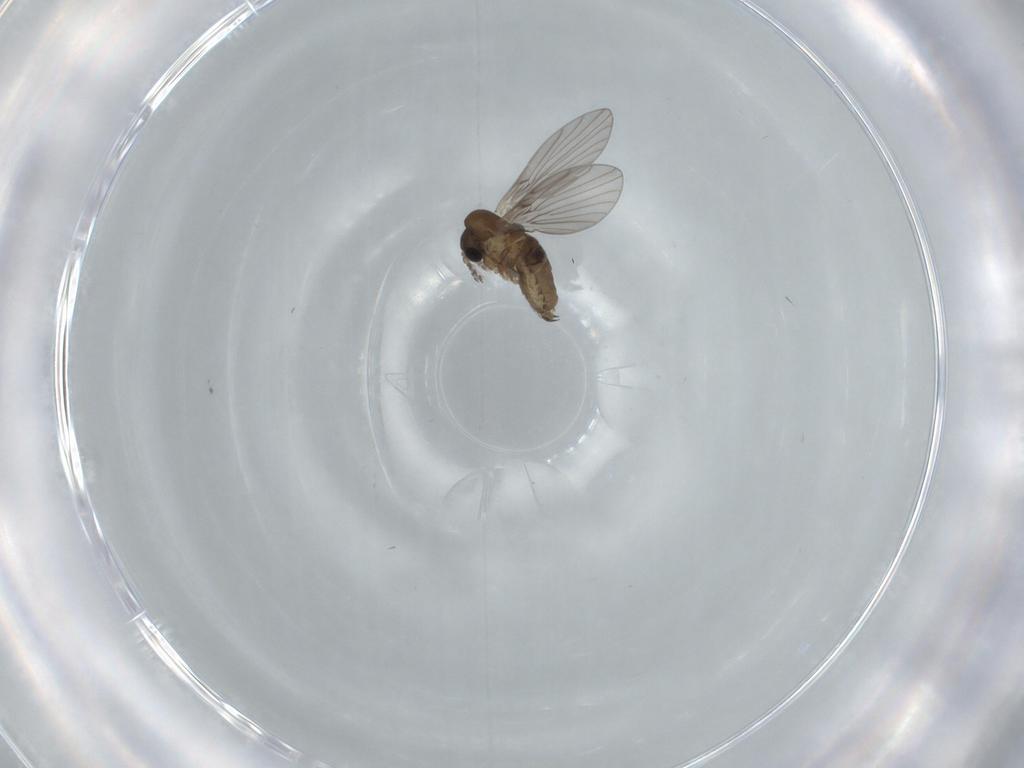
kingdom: Animalia
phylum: Arthropoda
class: Insecta
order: Diptera
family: Psychodidae
